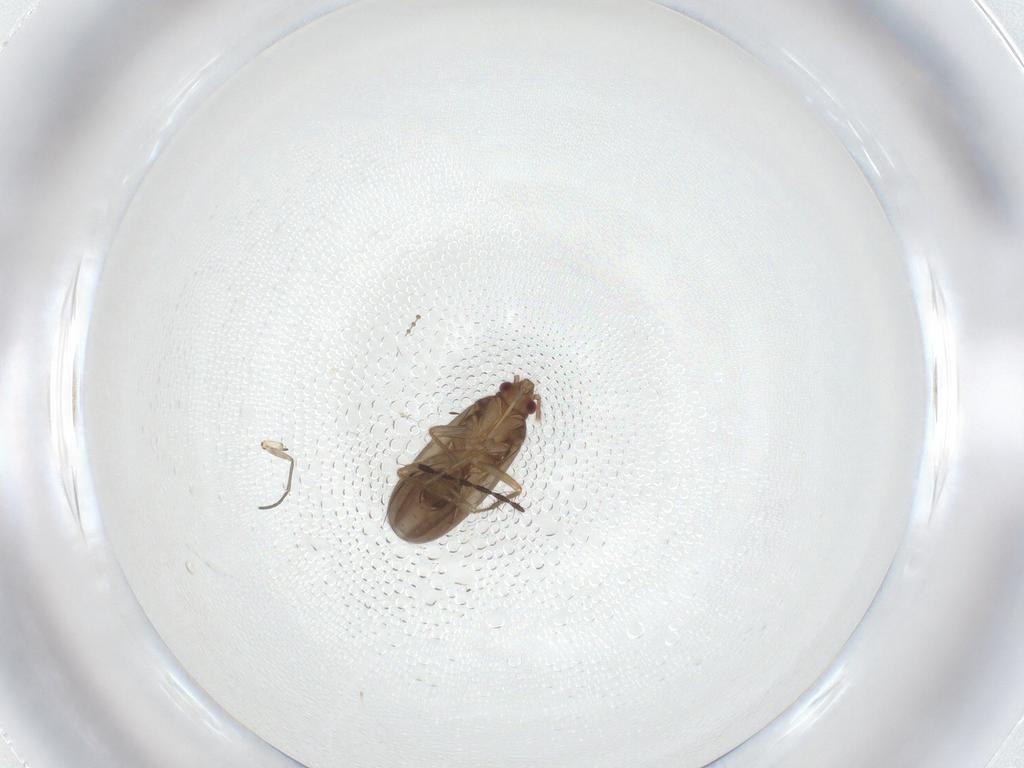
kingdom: Animalia
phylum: Arthropoda
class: Insecta
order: Hemiptera
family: Ceratocombidae
